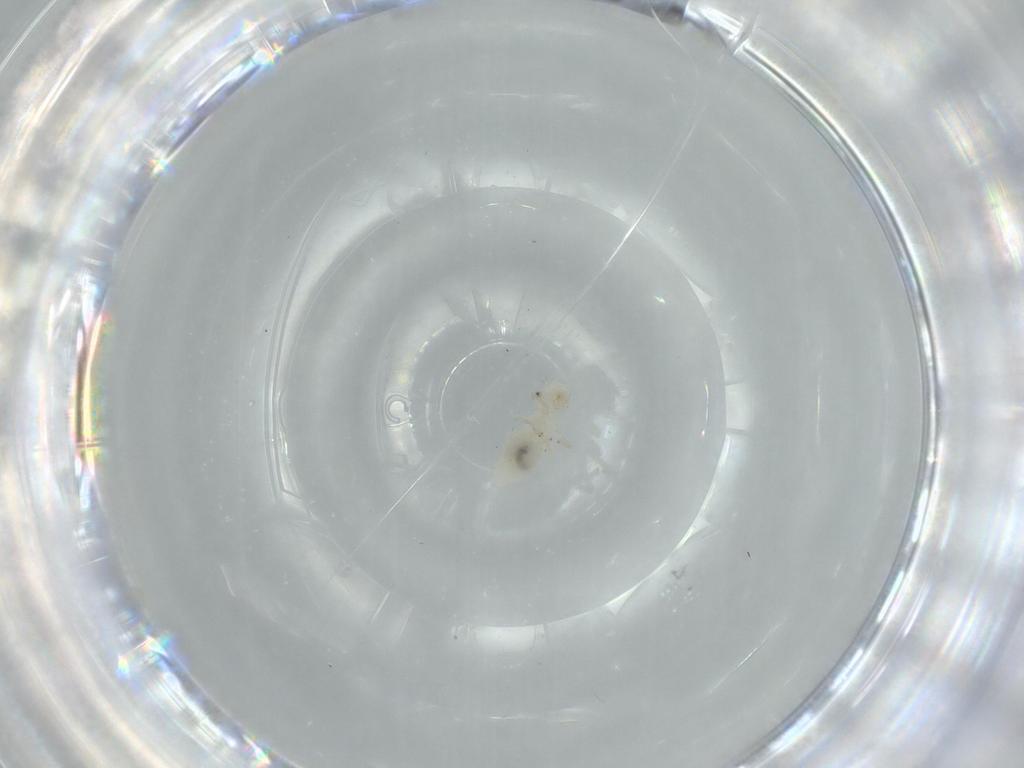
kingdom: Animalia
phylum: Arthropoda
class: Insecta
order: Psocodea
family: Caeciliusidae
